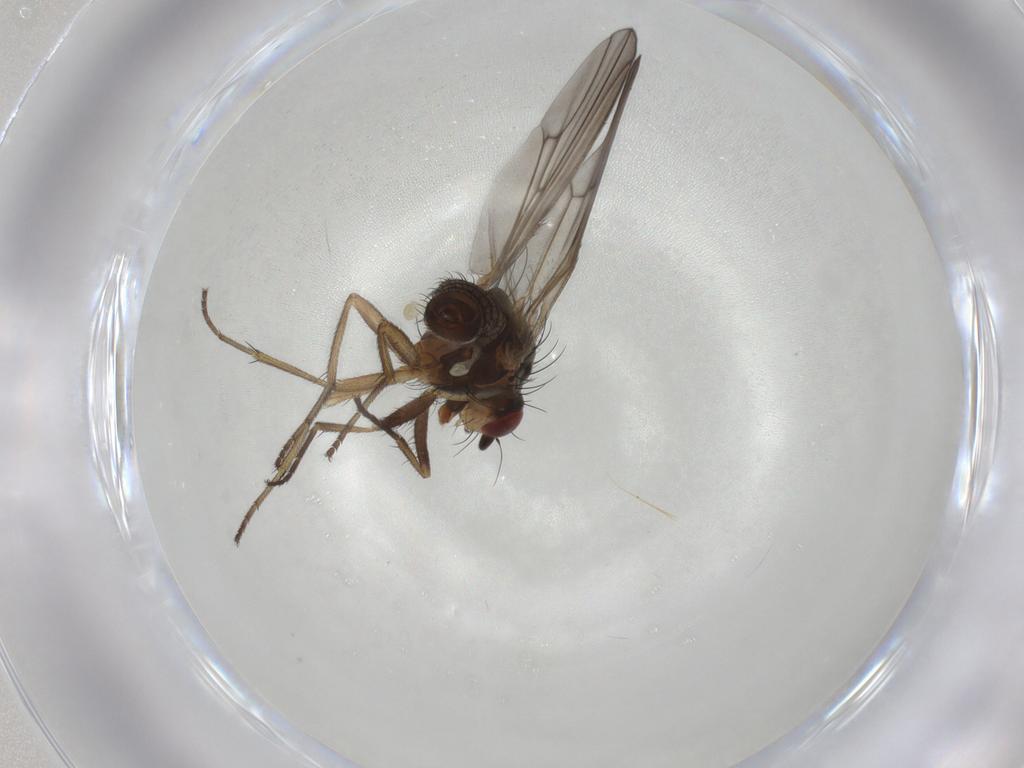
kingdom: Animalia
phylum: Arthropoda
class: Insecta
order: Diptera
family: Heleomyzidae
